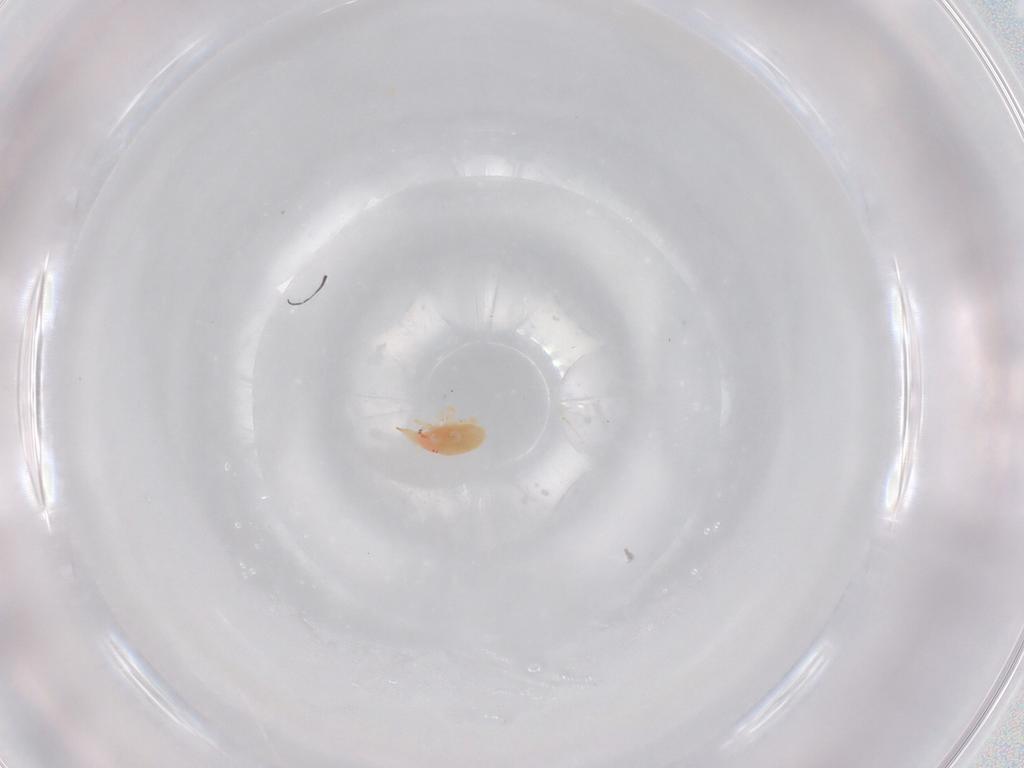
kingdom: Animalia
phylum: Arthropoda
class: Arachnida
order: Trombidiformes
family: Eupodidae
